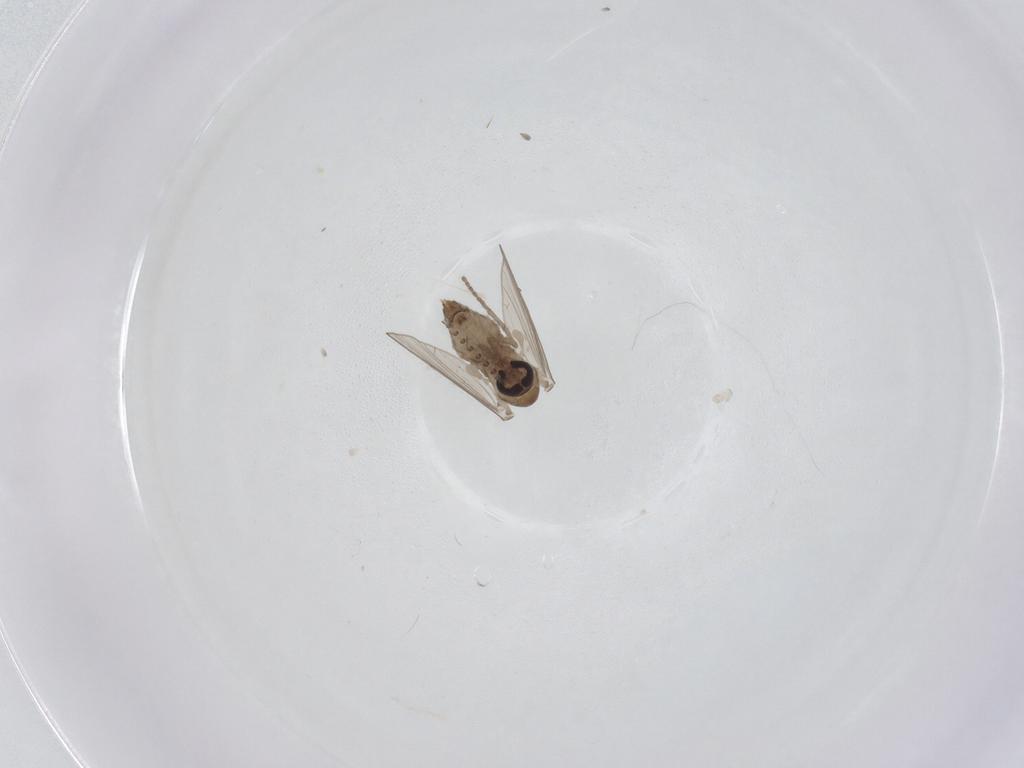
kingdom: Animalia
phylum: Arthropoda
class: Insecta
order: Diptera
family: Psychodidae
